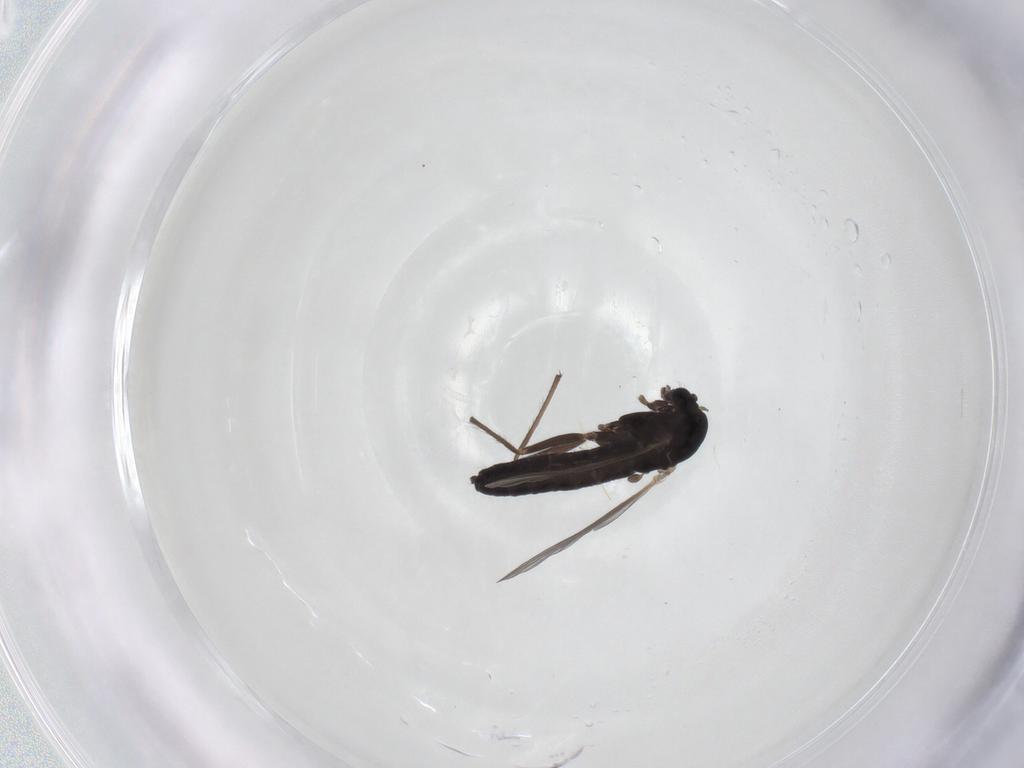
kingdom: Animalia
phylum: Arthropoda
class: Insecta
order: Diptera
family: Chironomidae
